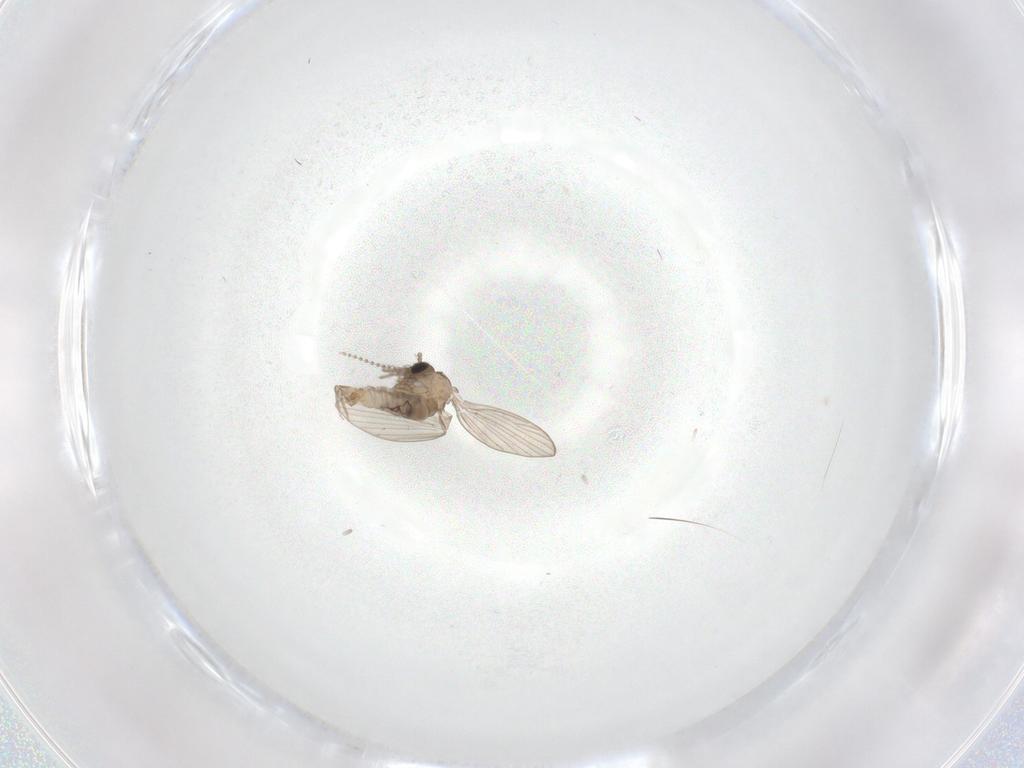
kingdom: Animalia
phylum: Arthropoda
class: Insecta
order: Diptera
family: Psychodidae
